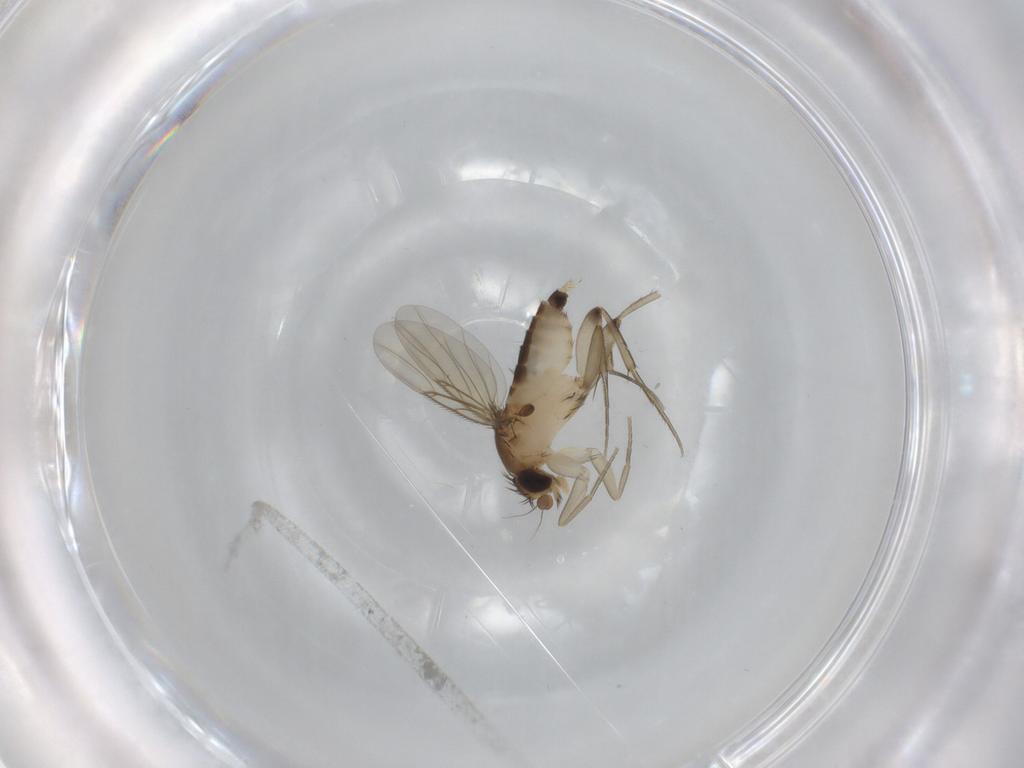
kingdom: Animalia
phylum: Arthropoda
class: Insecta
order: Diptera
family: Phoridae
